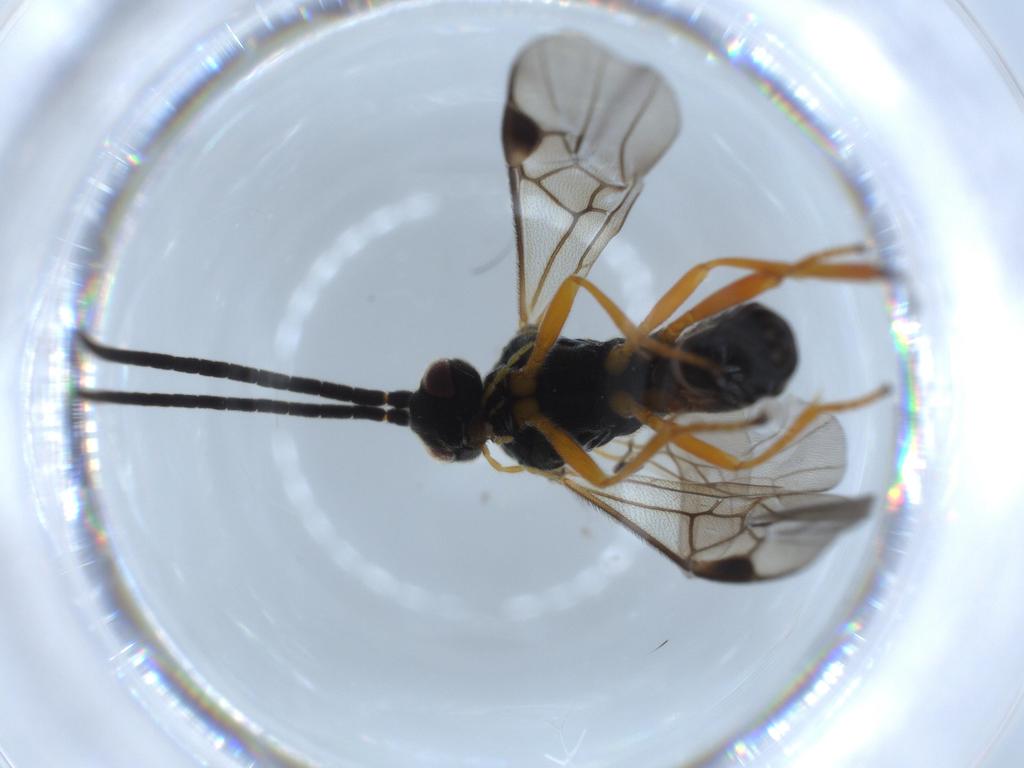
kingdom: Animalia
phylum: Arthropoda
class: Insecta
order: Hymenoptera
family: Braconidae
